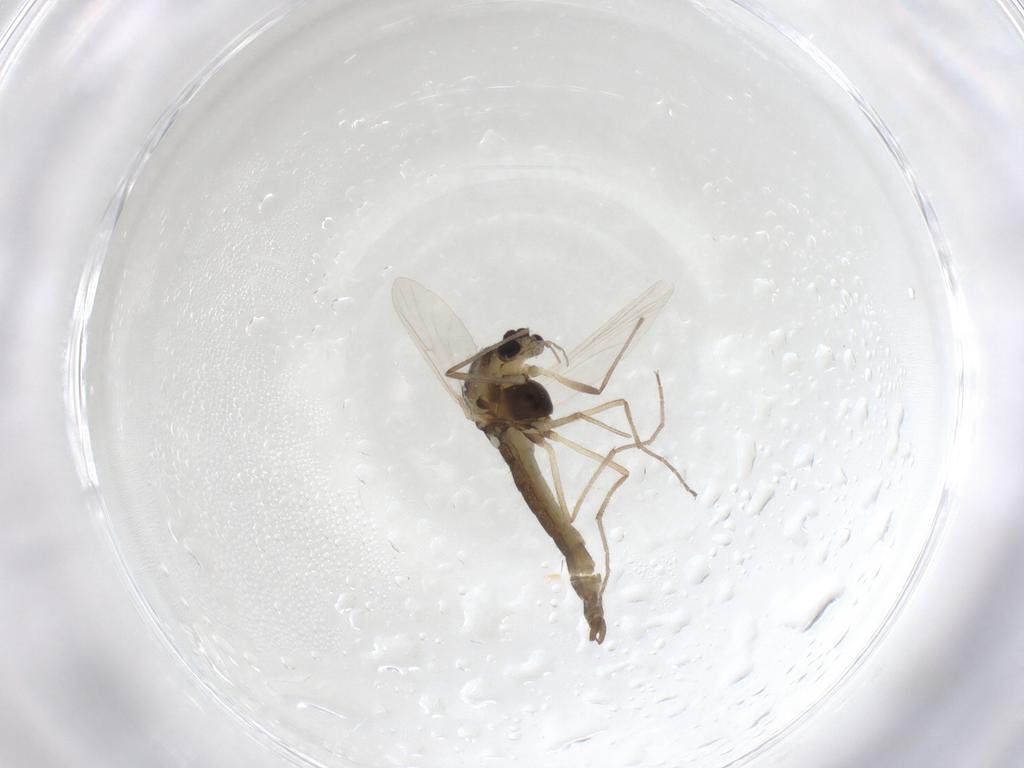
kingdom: Animalia
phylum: Arthropoda
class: Insecta
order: Diptera
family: Chironomidae
